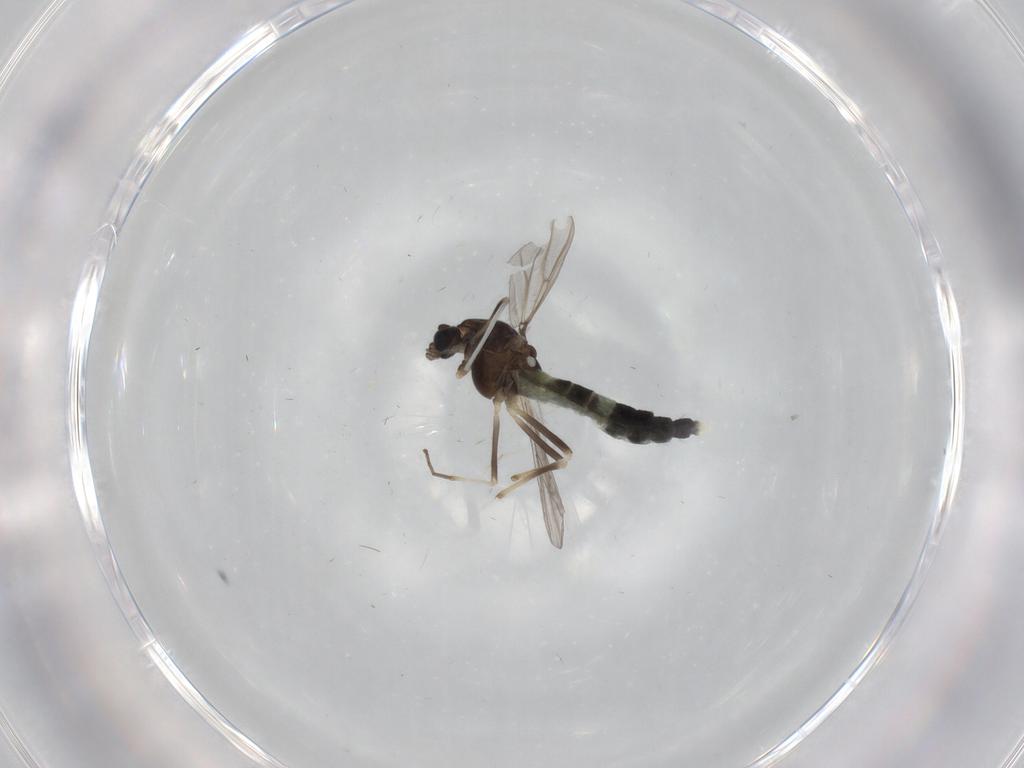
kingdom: Animalia
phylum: Arthropoda
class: Insecta
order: Diptera
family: Chironomidae
